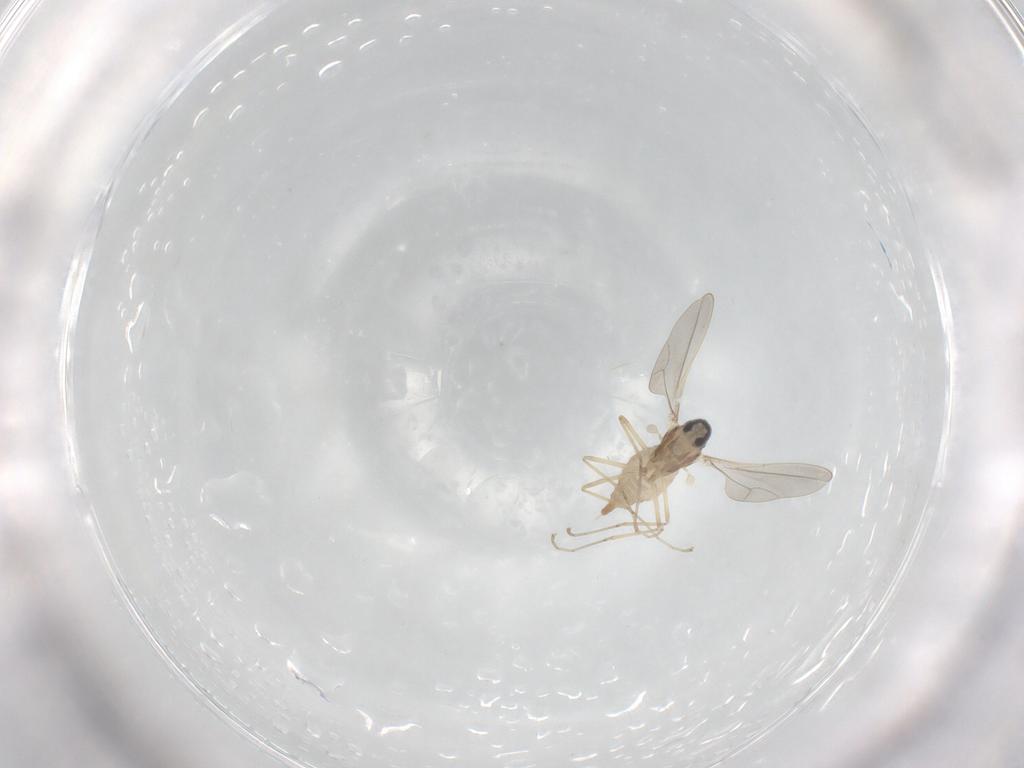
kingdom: Animalia
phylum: Arthropoda
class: Insecta
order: Diptera
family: Cecidomyiidae
